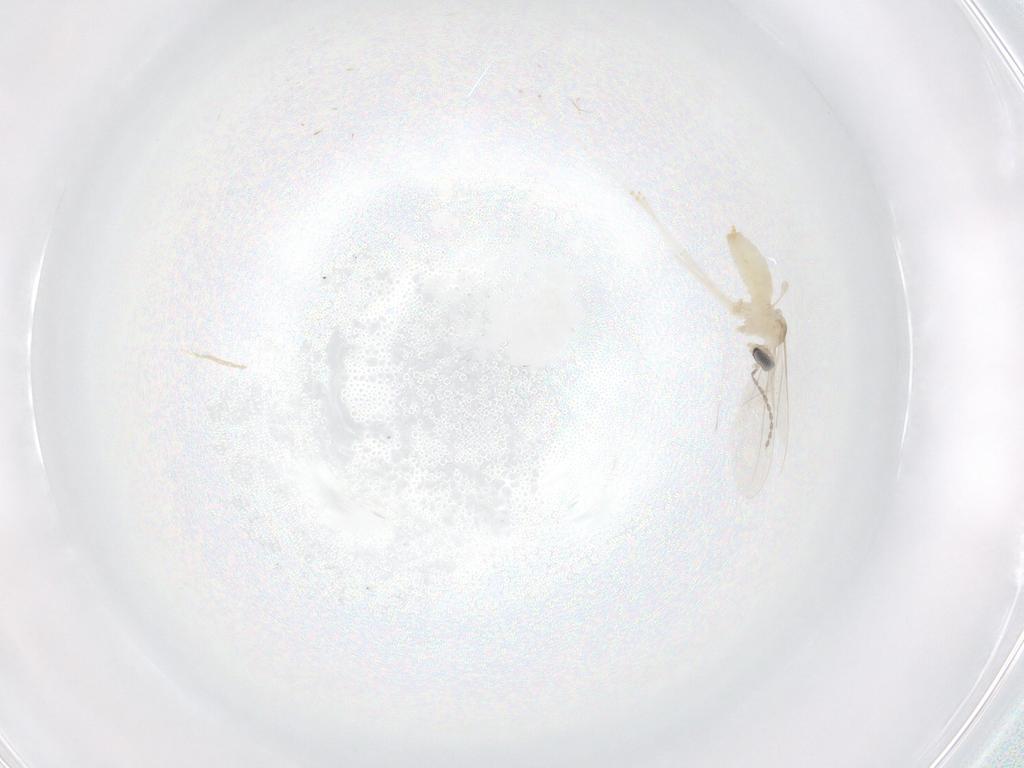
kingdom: Animalia
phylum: Arthropoda
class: Insecta
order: Diptera
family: Cecidomyiidae
